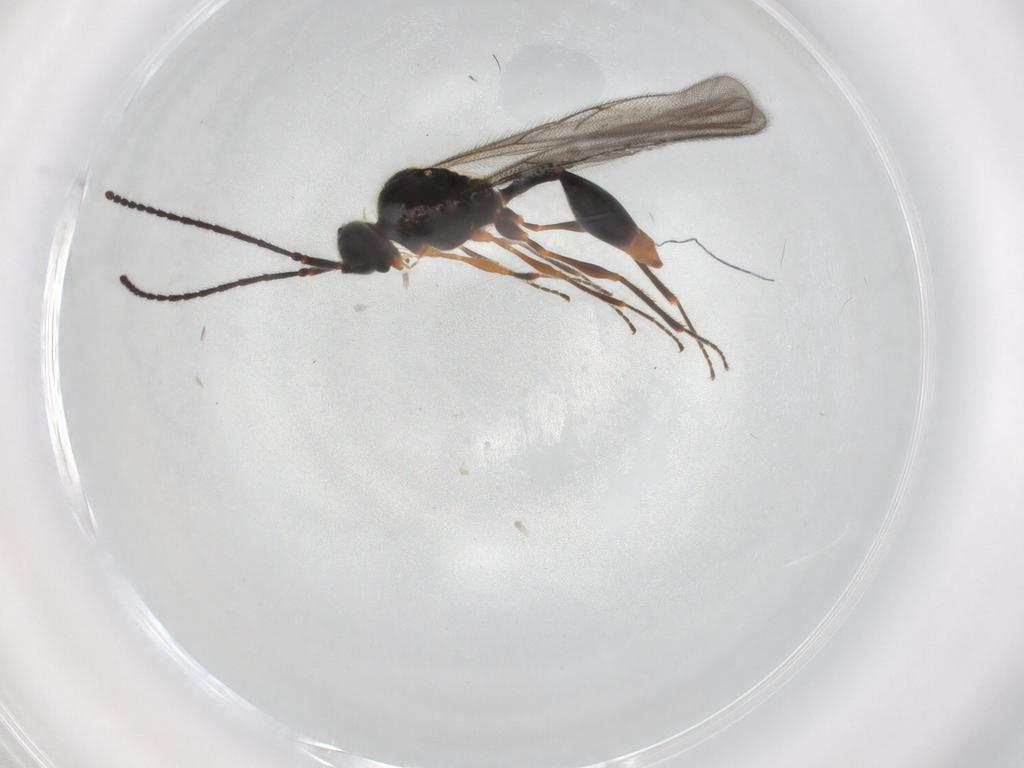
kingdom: Animalia
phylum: Arthropoda
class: Insecta
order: Hymenoptera
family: Diapriidae
